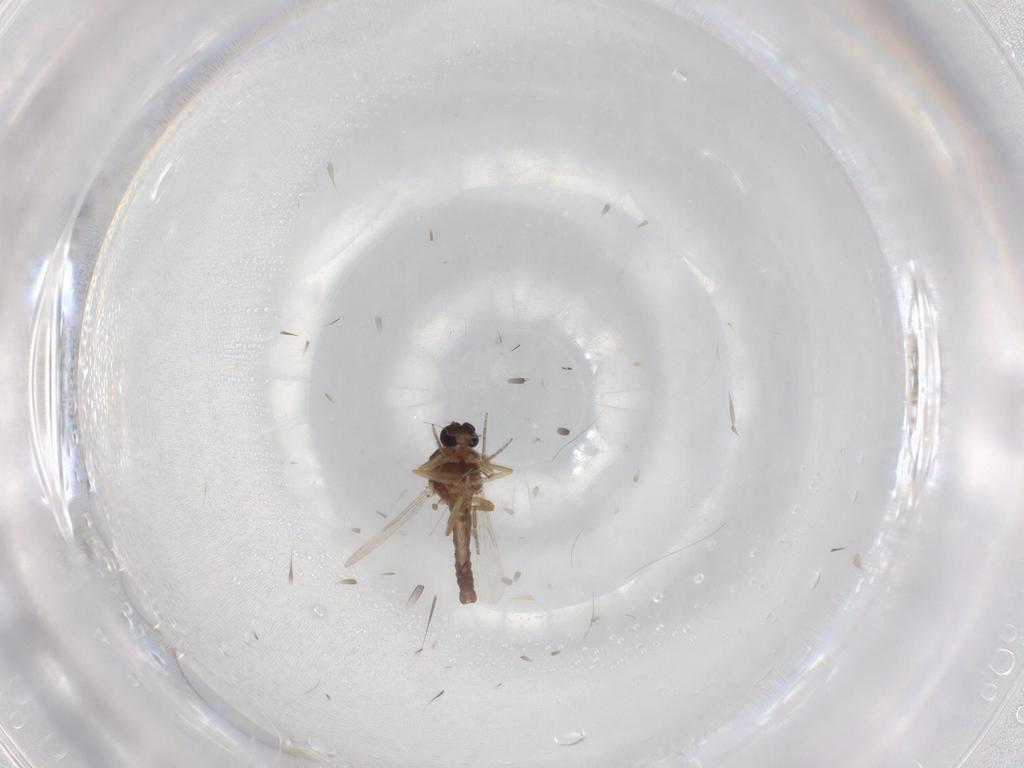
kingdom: Animalia
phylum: Arthropoda
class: Insecta
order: Diptera
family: Ceratopogonidae
